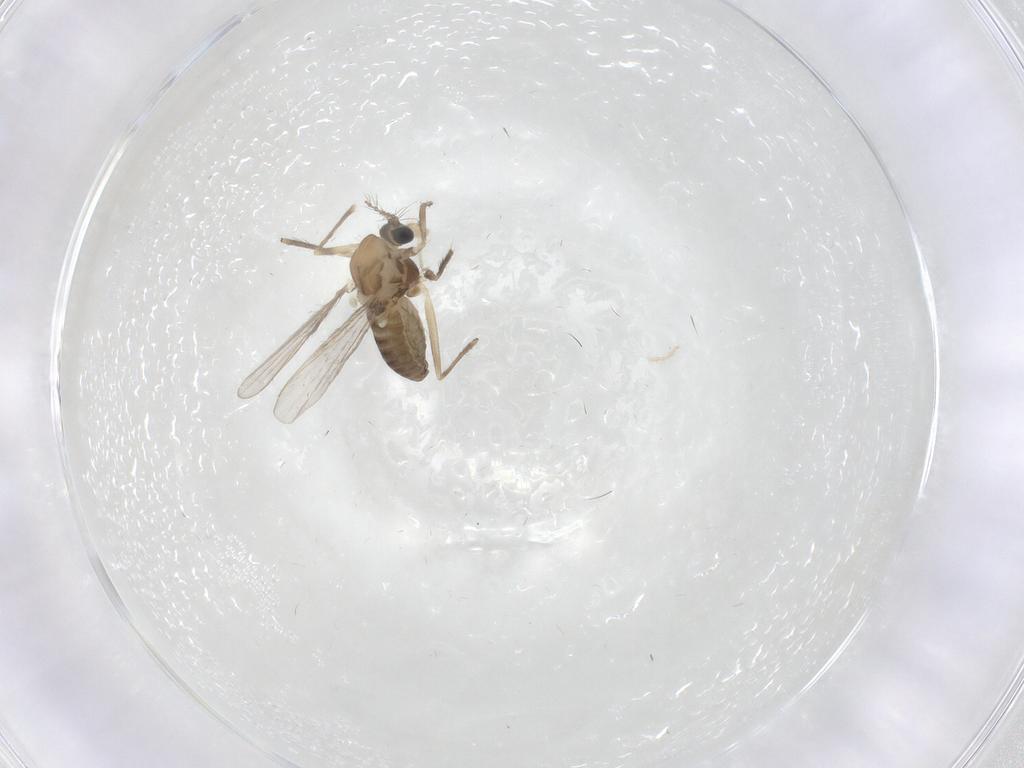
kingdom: Animalia
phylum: Arthropoda
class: Insecta
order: Diptera
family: Chironomidae
